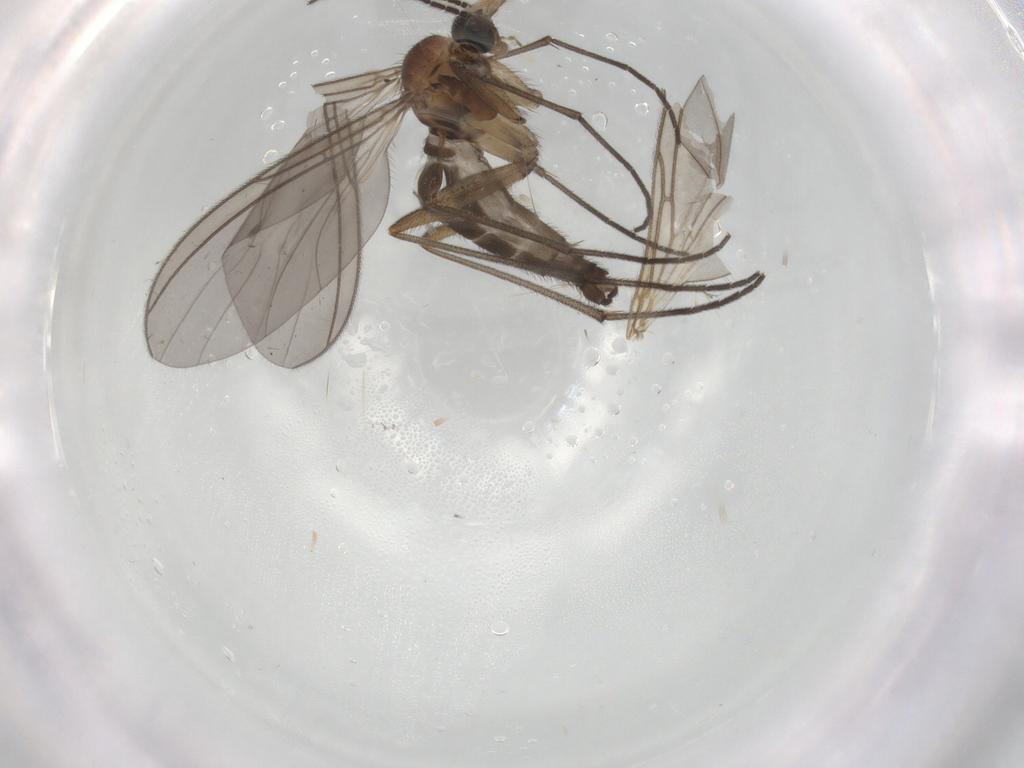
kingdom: Animalia
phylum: Arthropoda
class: Insecta
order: Diptera
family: Sciaridae
